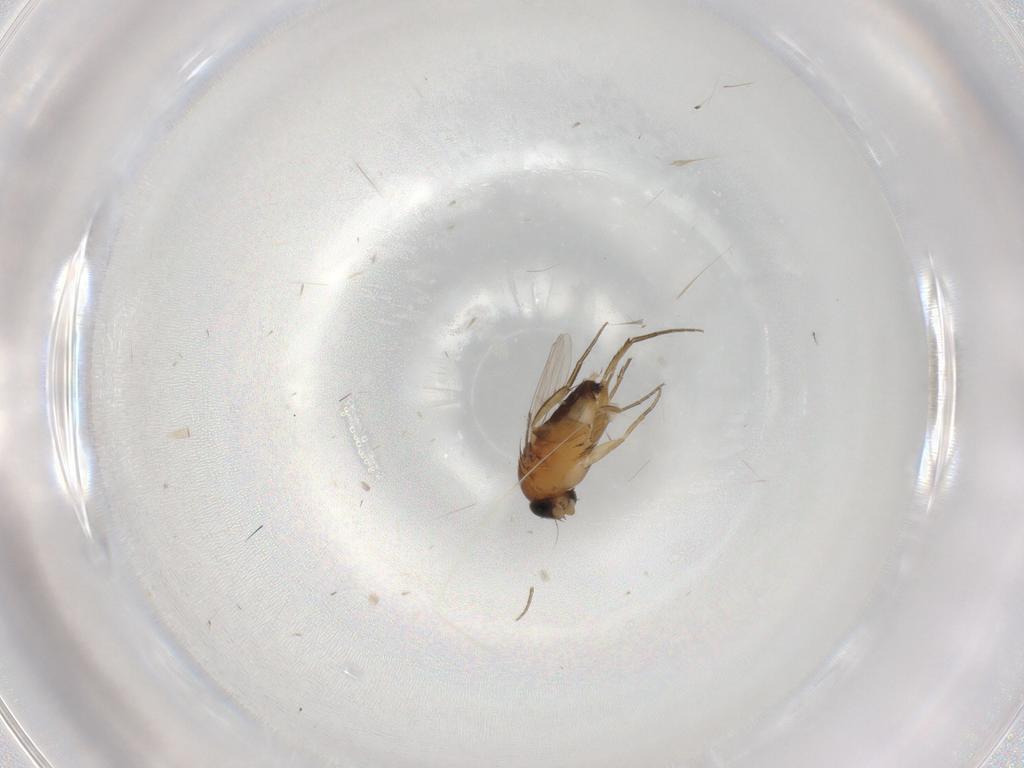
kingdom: Animalia
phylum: Arthropoda
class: Insecta
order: Diptera
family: Phoridae
